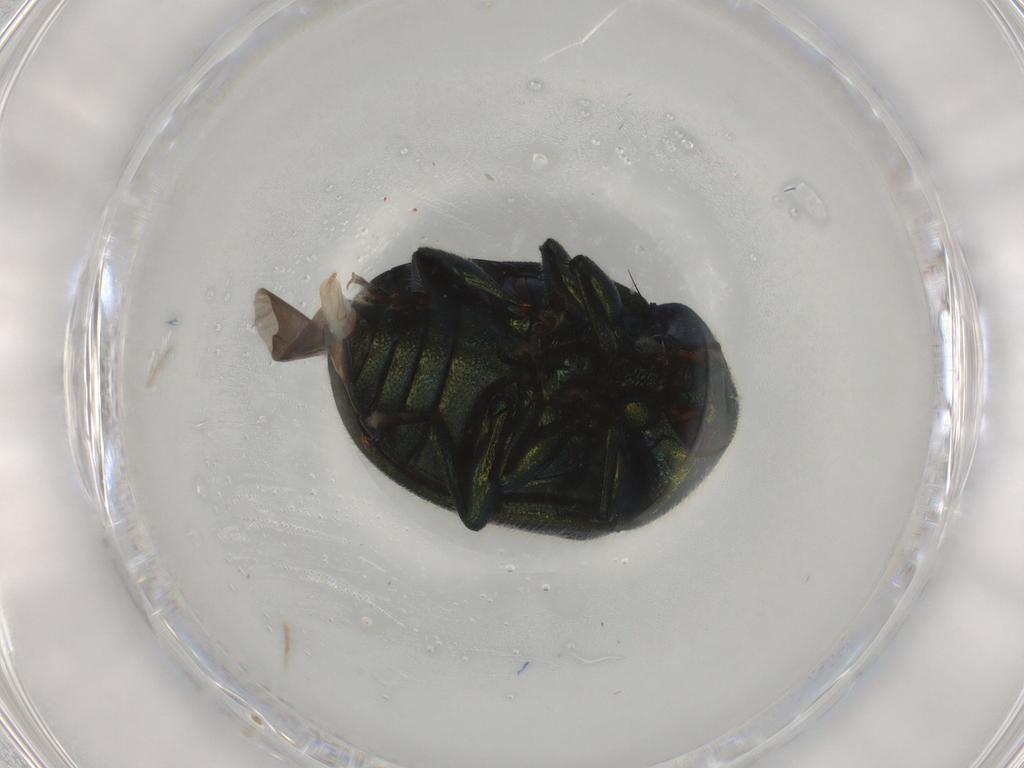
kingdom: Animalia
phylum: Arthropoda
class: Insecta
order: Coleoptera
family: Chrysomelidae
